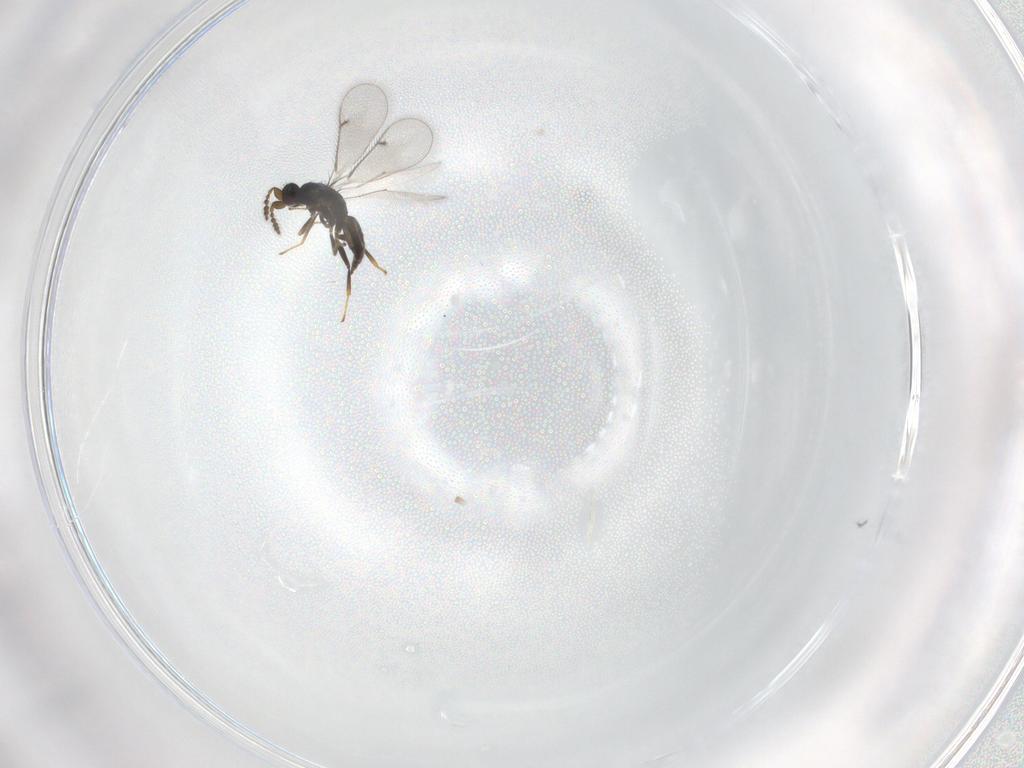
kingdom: Animalia
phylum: Arthropoda
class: Insecta
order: Hymenoptera
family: Eulophidae
